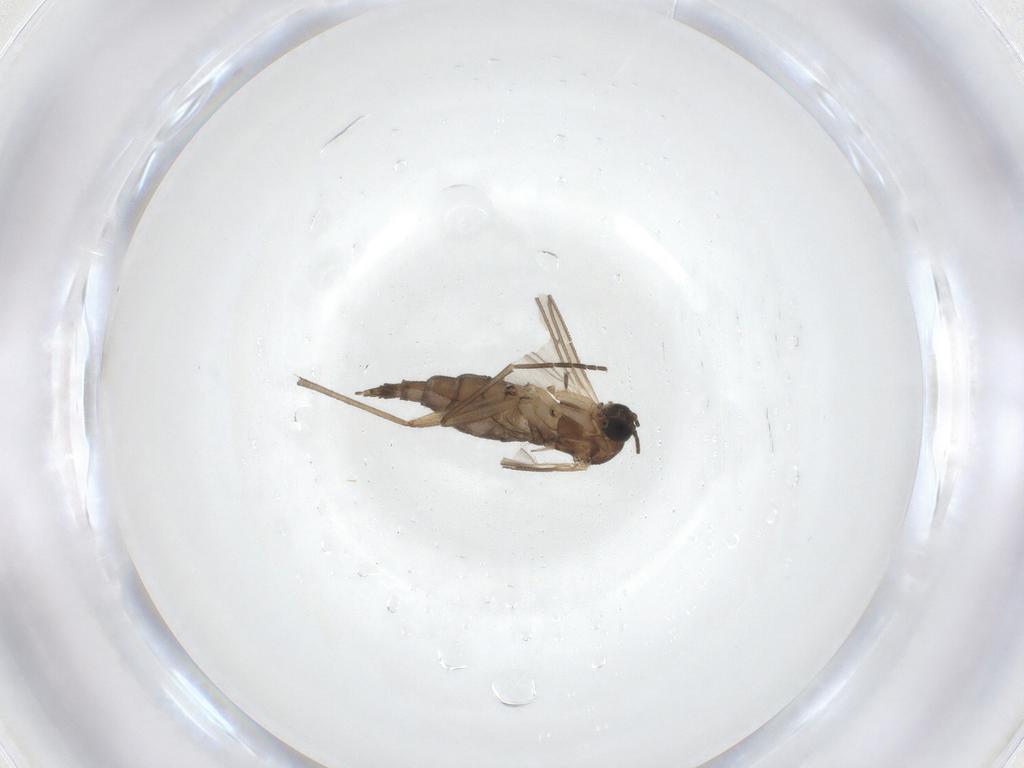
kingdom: Animalia
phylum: Arthropoda
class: Insecta
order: Diptera
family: Sciaridae
